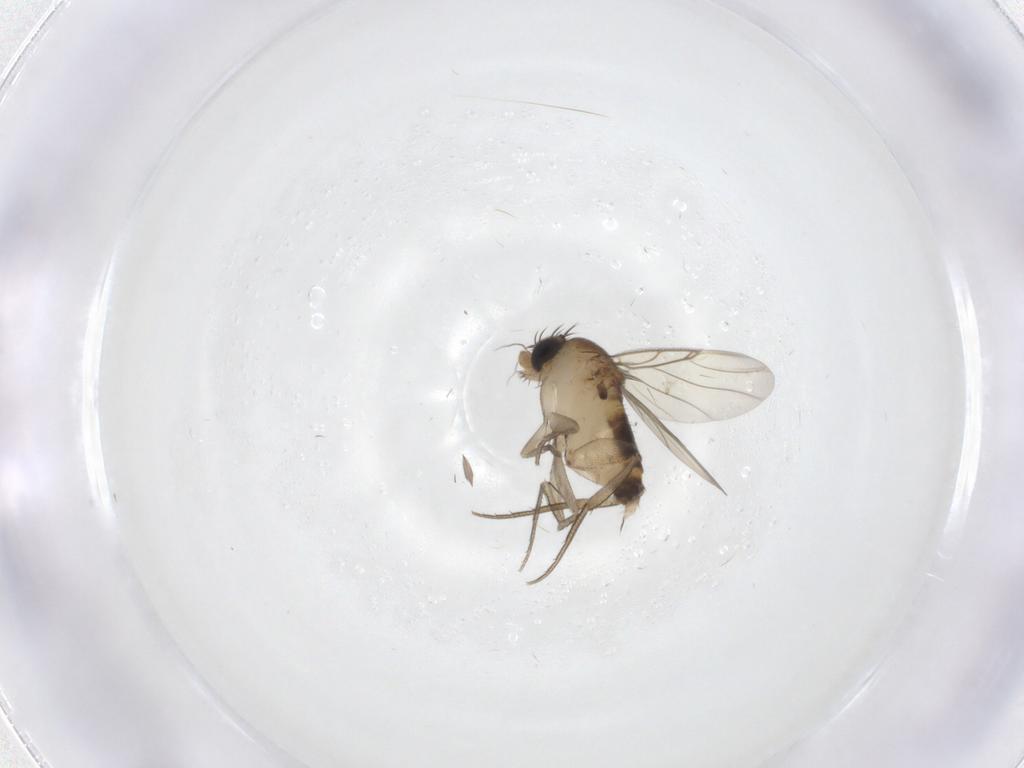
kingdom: Animalia
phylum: Arthropoda
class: Insecta
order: Diptera
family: Phoridae
